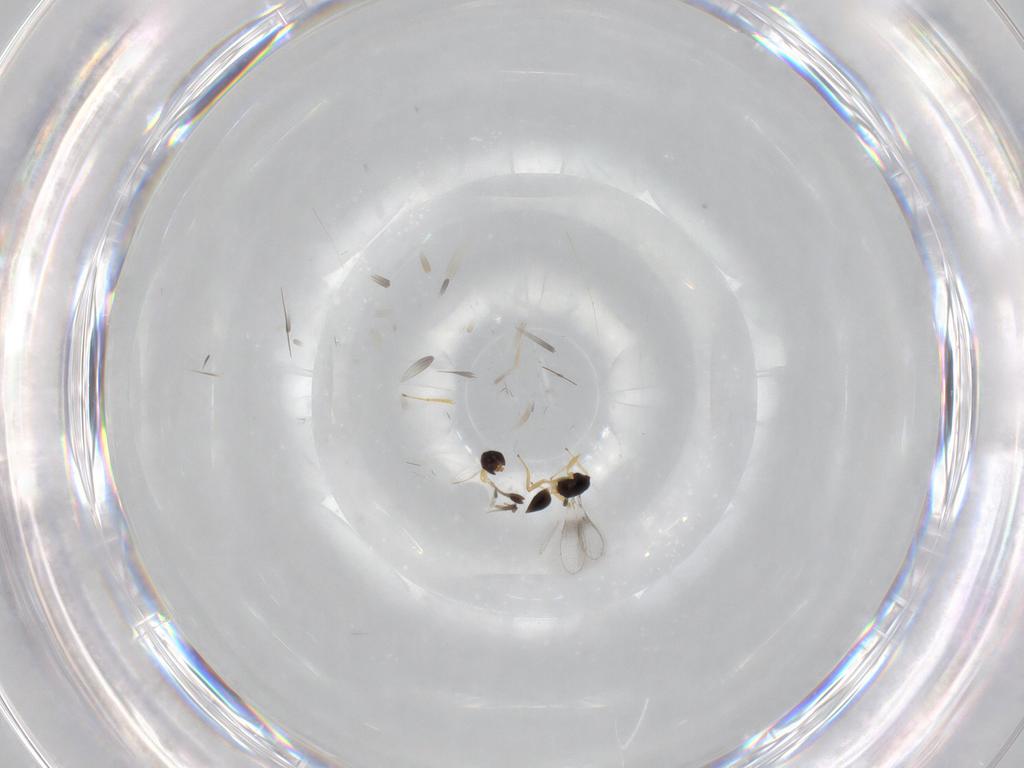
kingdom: Animalia
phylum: Arthropoda
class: Insecta
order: Hymenoptera
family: Mymaridae
